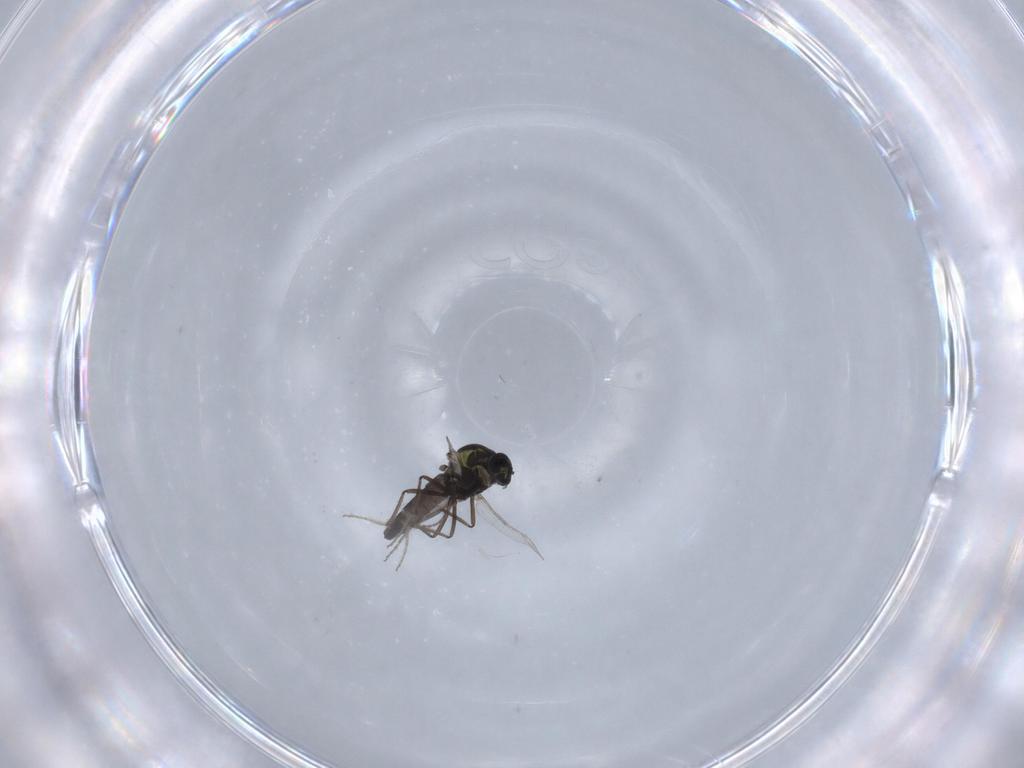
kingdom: Animalia
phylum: Arthropoda
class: Insecta
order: Diptera
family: Ceratopogonidae
